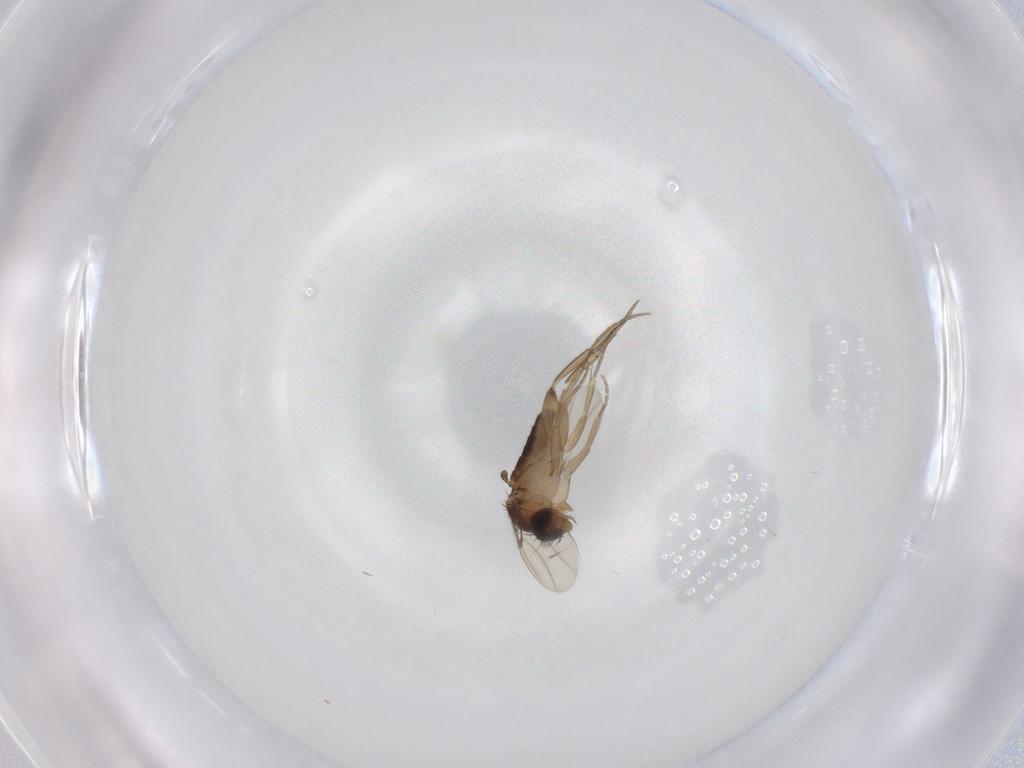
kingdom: Animalia
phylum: Arthropoda
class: Insecta
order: Diptera
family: Phoridae
